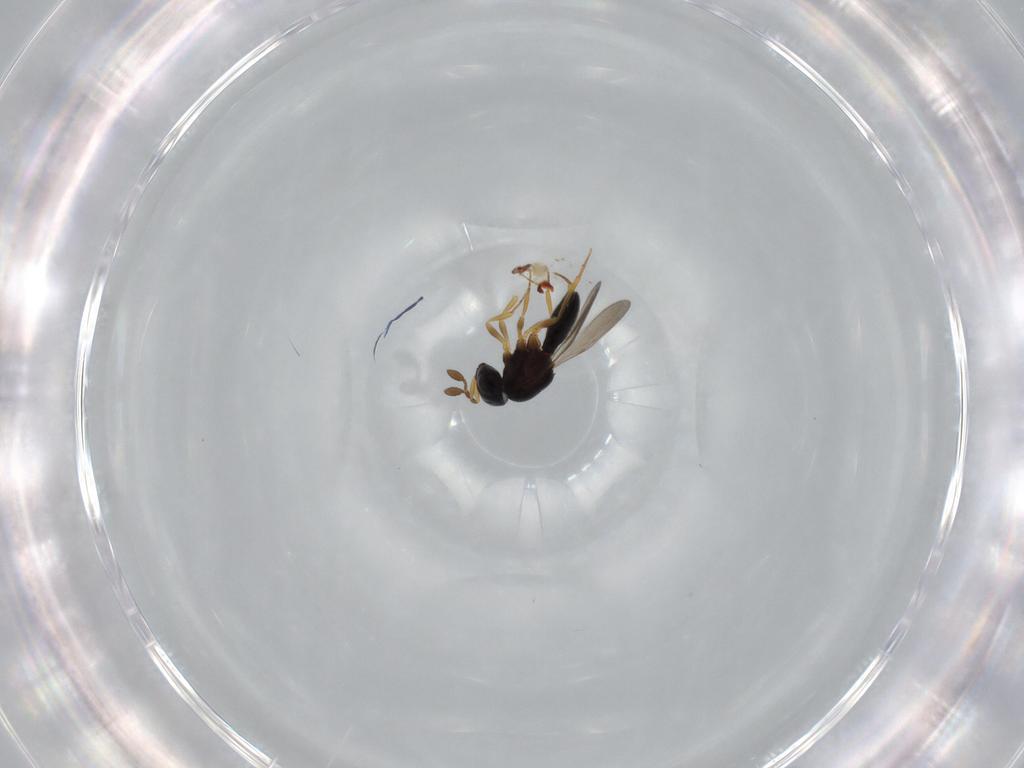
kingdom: Animalia
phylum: Arthropoda
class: Insecta
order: Hymenoptera
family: Scelionidae
